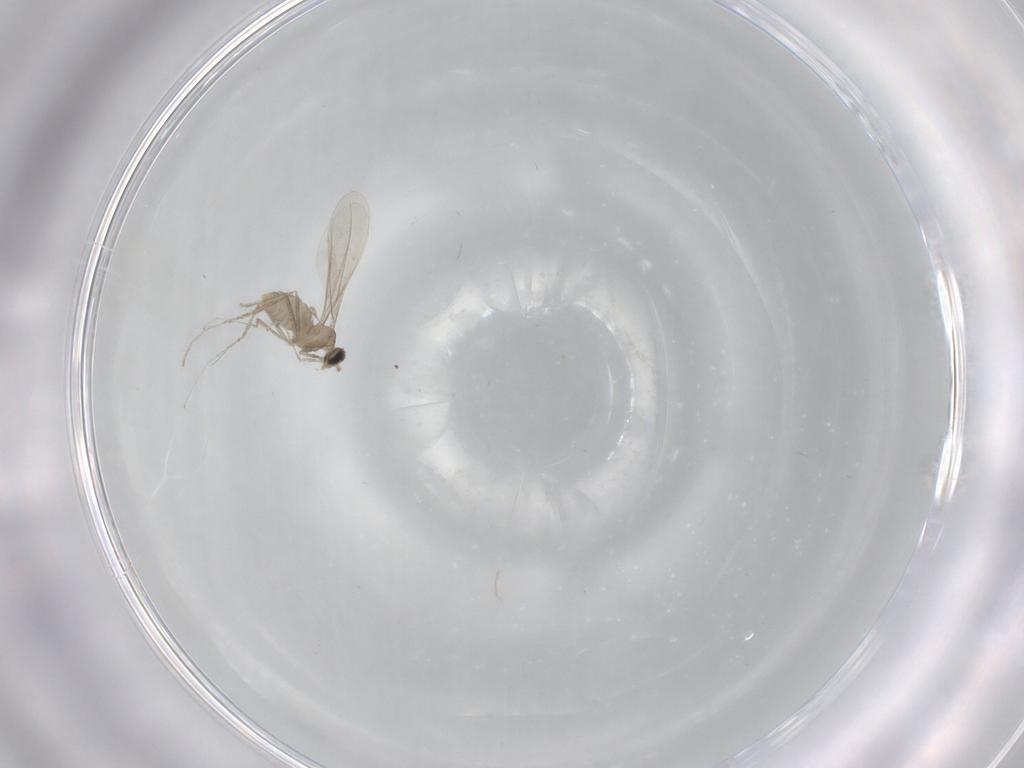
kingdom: Animalia
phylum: Arthropoda
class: Insecta
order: Diptera
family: Cecidomyiidae
